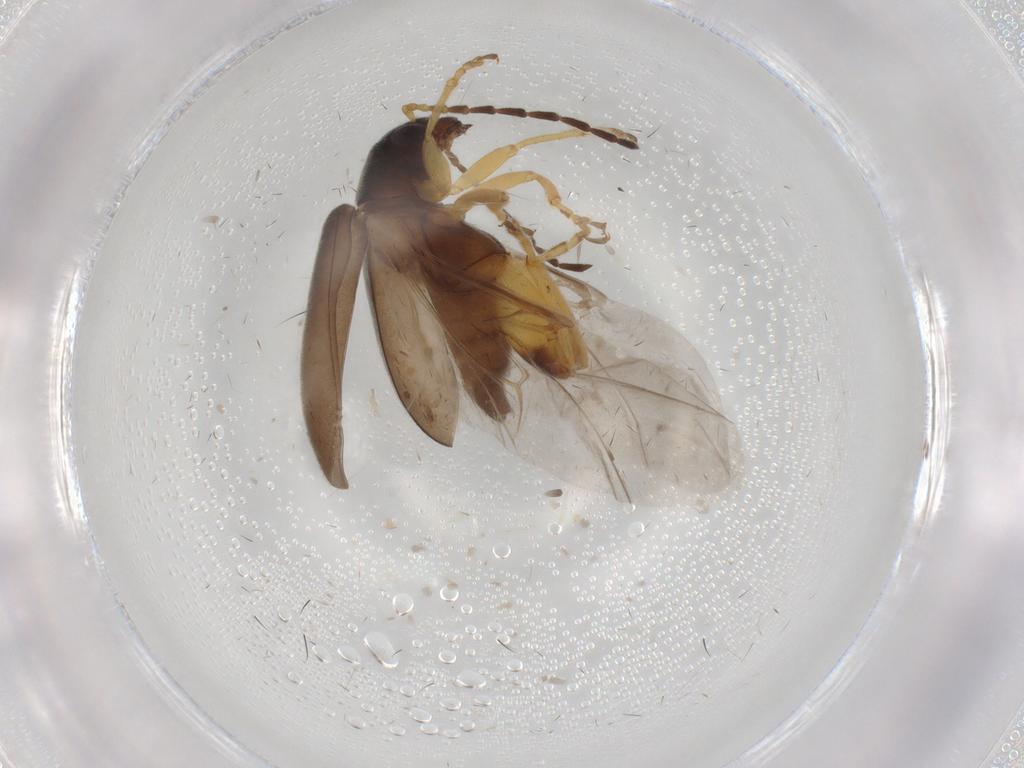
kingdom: Animalia
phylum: Arthropoda
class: Insecta
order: Coleoptera
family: Chrysomelidae
